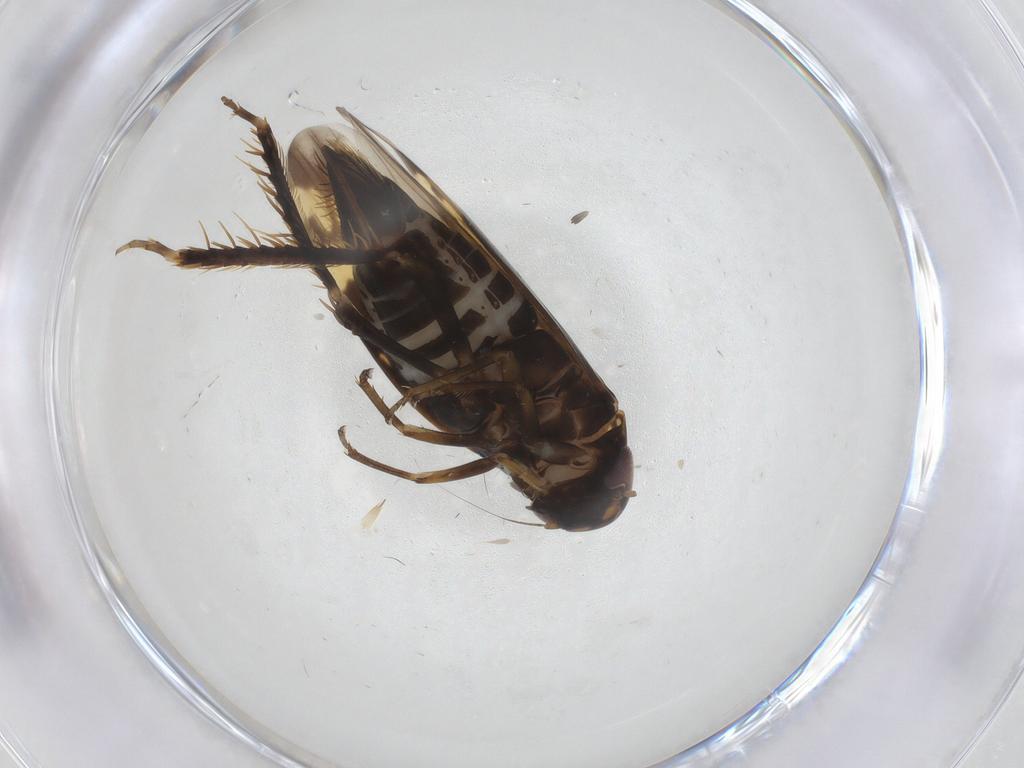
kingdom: Animalia
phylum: Arthropoda
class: Insecta
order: Hemiptera
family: Cicadellidae
